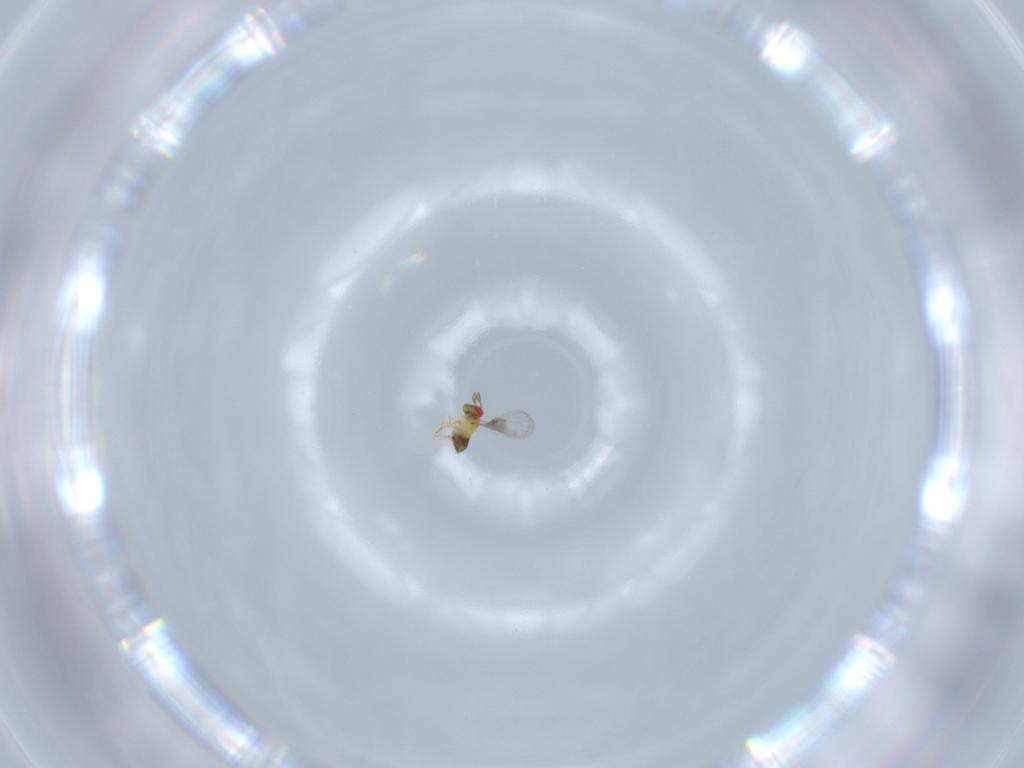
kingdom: Animalia
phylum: Arthropoda
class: Insecta
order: Hymenoptera
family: Trichogrammatidae
